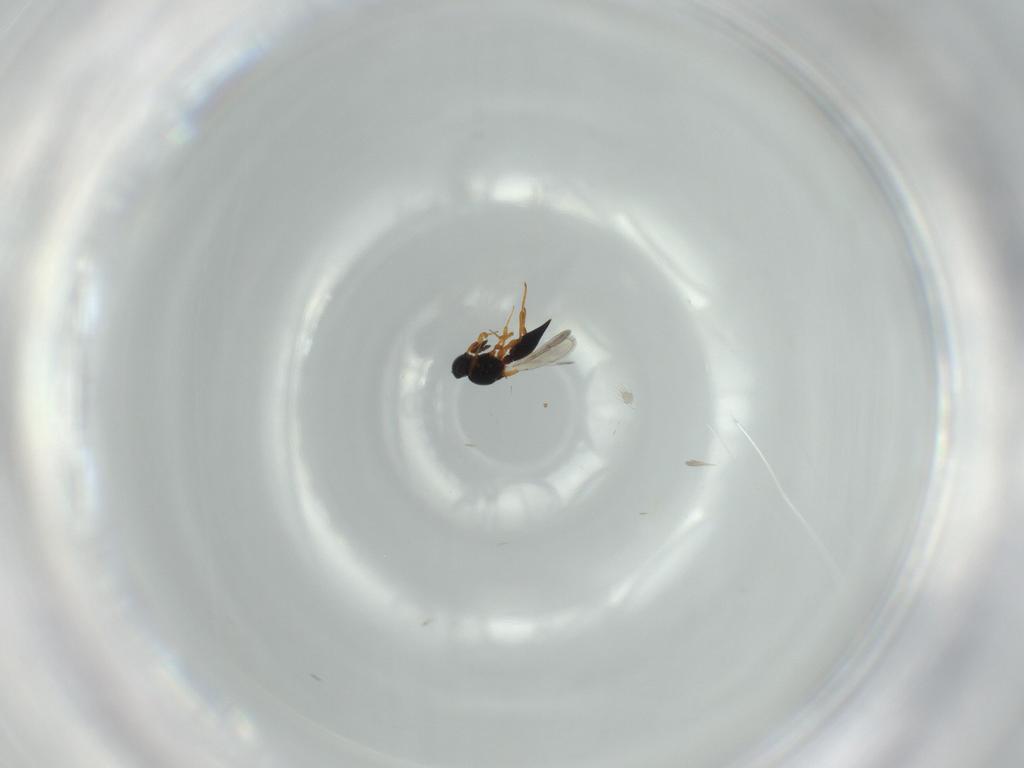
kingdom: Animalia
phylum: Arthropoda
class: Insecta
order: Hymenoptera
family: Platygastridae
